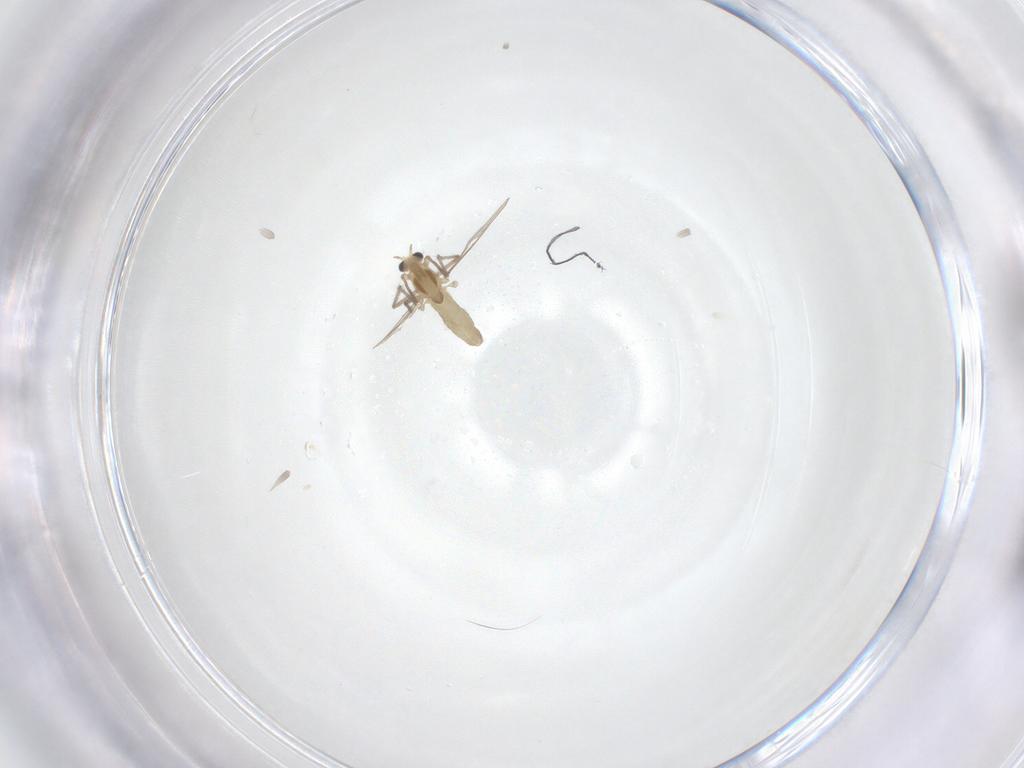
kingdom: Animalia
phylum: Arthropoda
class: Insecta
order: Diptera
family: Chironomidae
